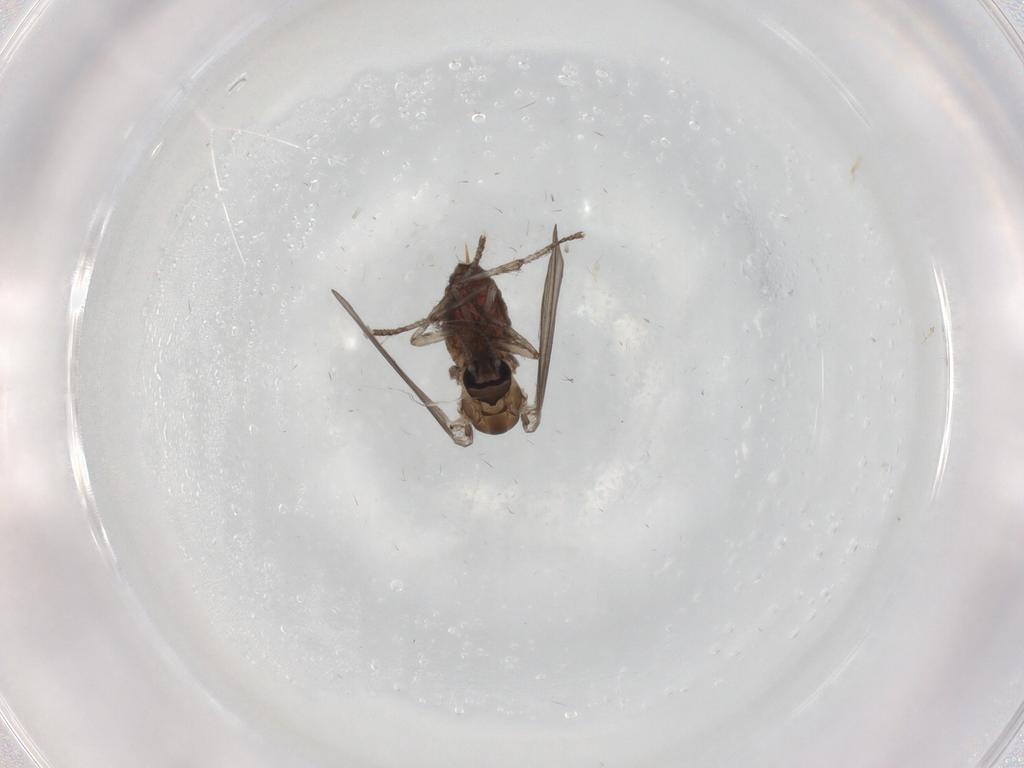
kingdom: Animalia
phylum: Arthropoda
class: Insecta
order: Diptera
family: Psychodidae
